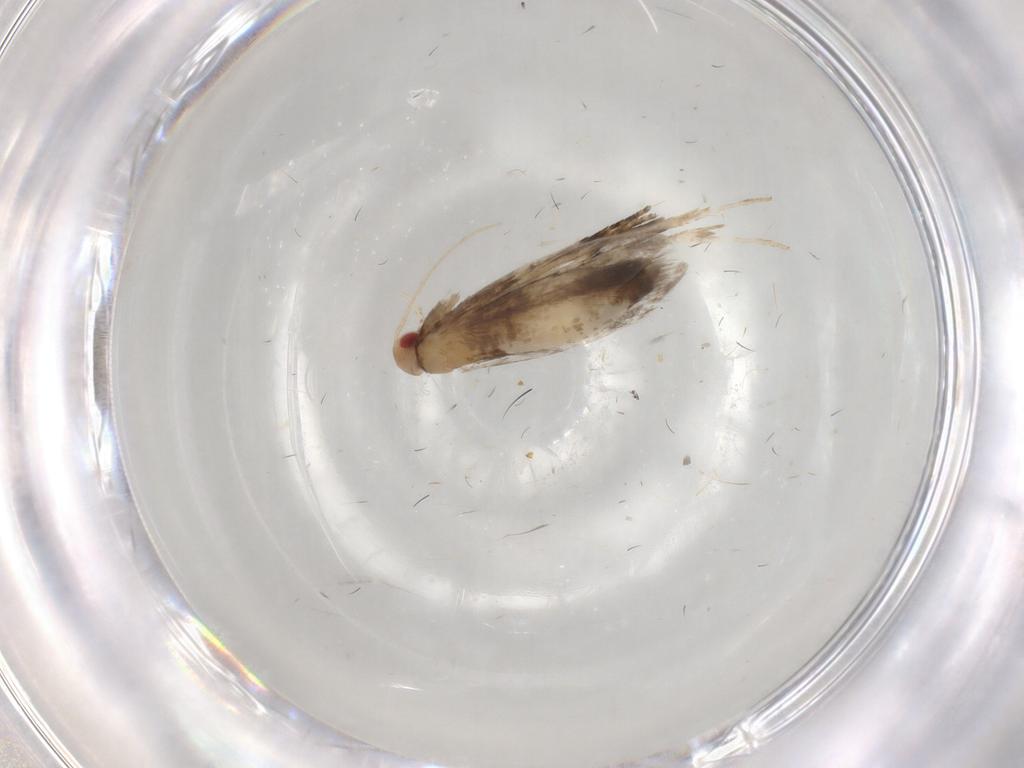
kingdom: Animalia
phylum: Arthropoda
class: Insecta
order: Lepidoptera
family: Gelechiidae
